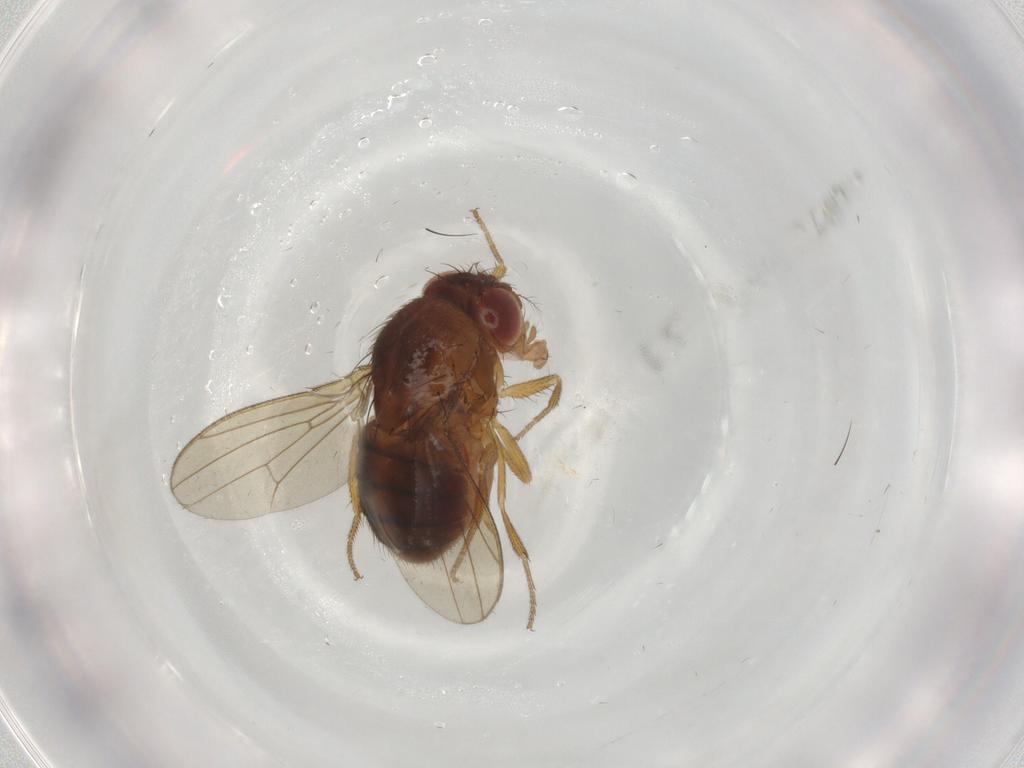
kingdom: Animalia
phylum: Arthropoda
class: Insecta
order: Diptera
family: Drosophilidae
